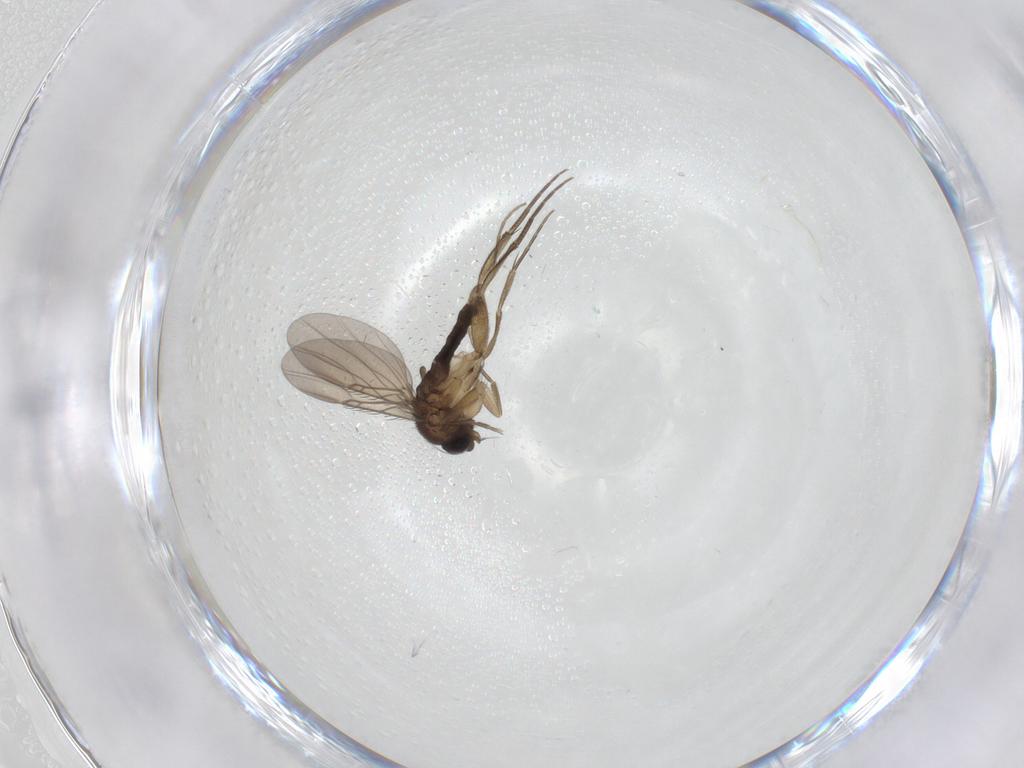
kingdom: Animalia
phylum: Arthropoda
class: Insecta
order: Diptera
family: Phoridae
